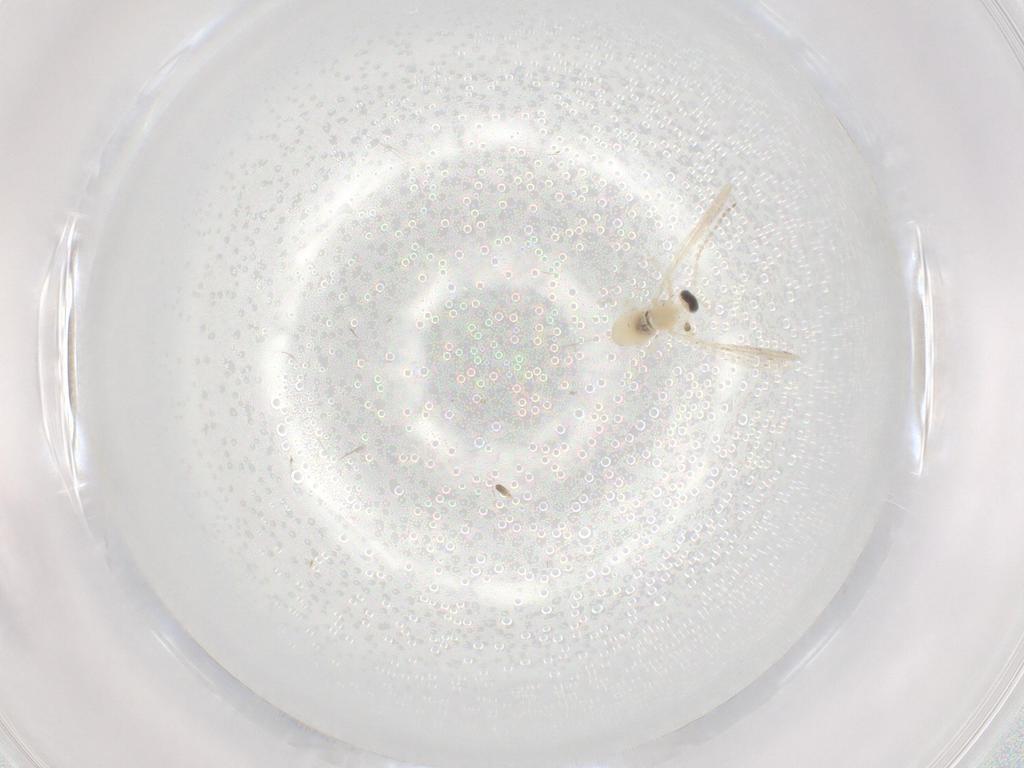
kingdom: Animalia
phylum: Arthropoda
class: Insecta
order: Diptera
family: Cecidomyiidae
